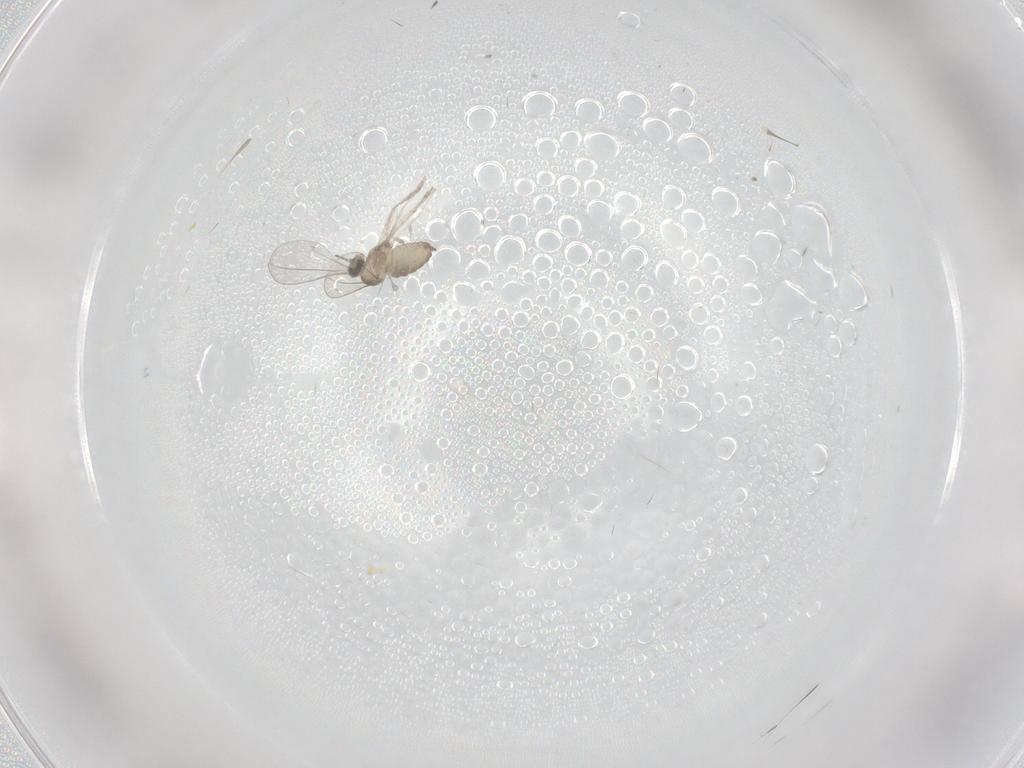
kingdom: Animalia
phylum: Arthropoda
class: Insecta
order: Diptera
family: Cecidomyiidae
